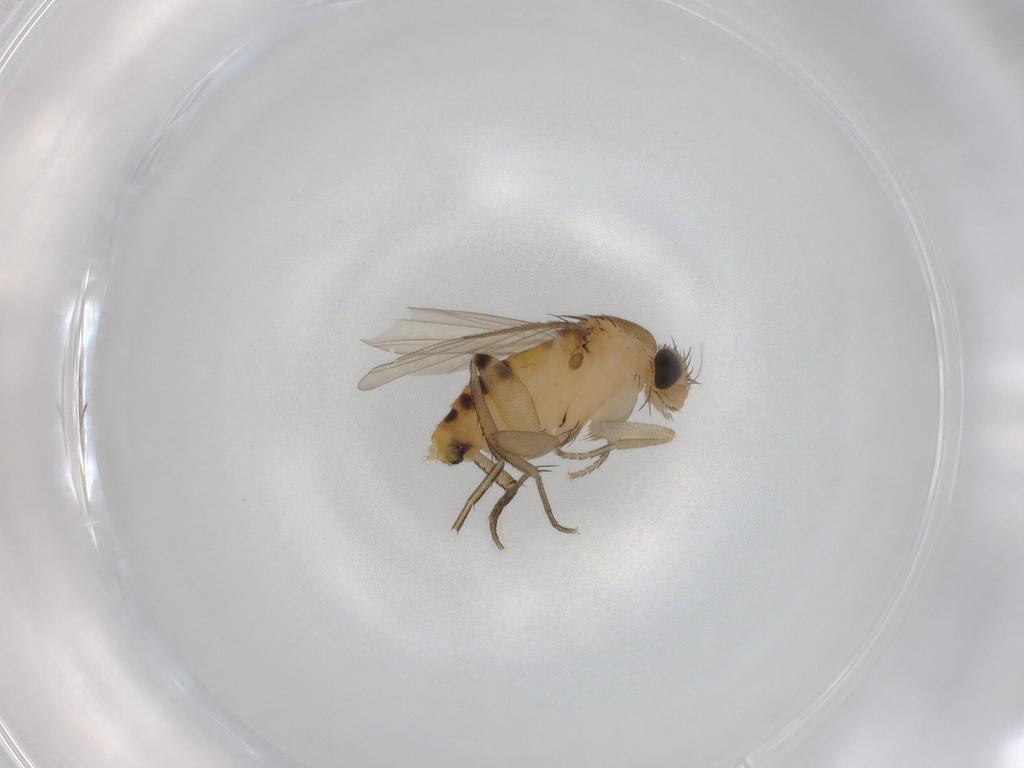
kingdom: Animalia
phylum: Arthropoda
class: Insecta
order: Diptera
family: Phoridae
